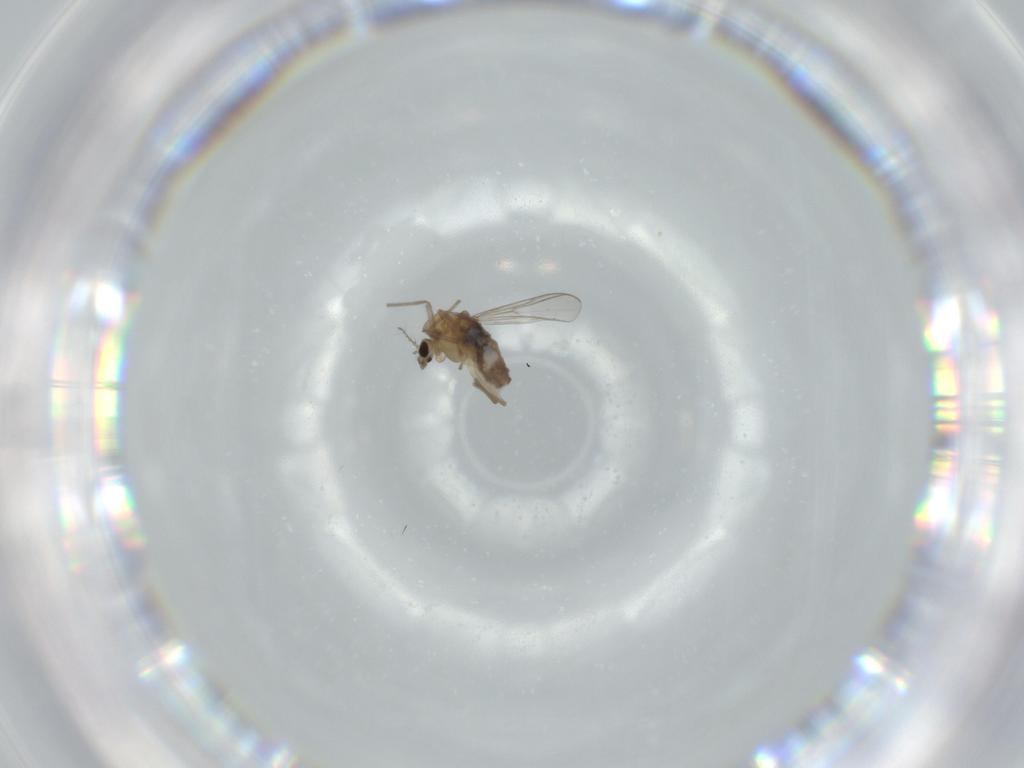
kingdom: Animalia
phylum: Arthropoda
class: Insecta
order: Diptera
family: Chironomidae
